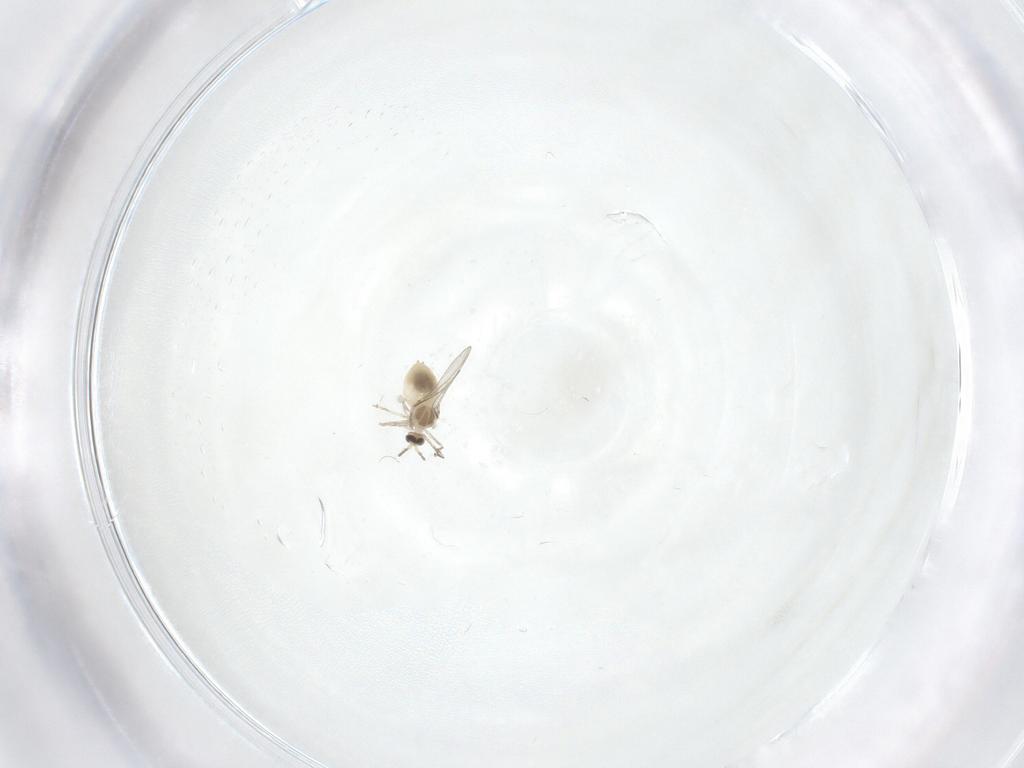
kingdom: Animalia
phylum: Arthropoda
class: Insecta
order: Diptera
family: Cecidomyiidae
